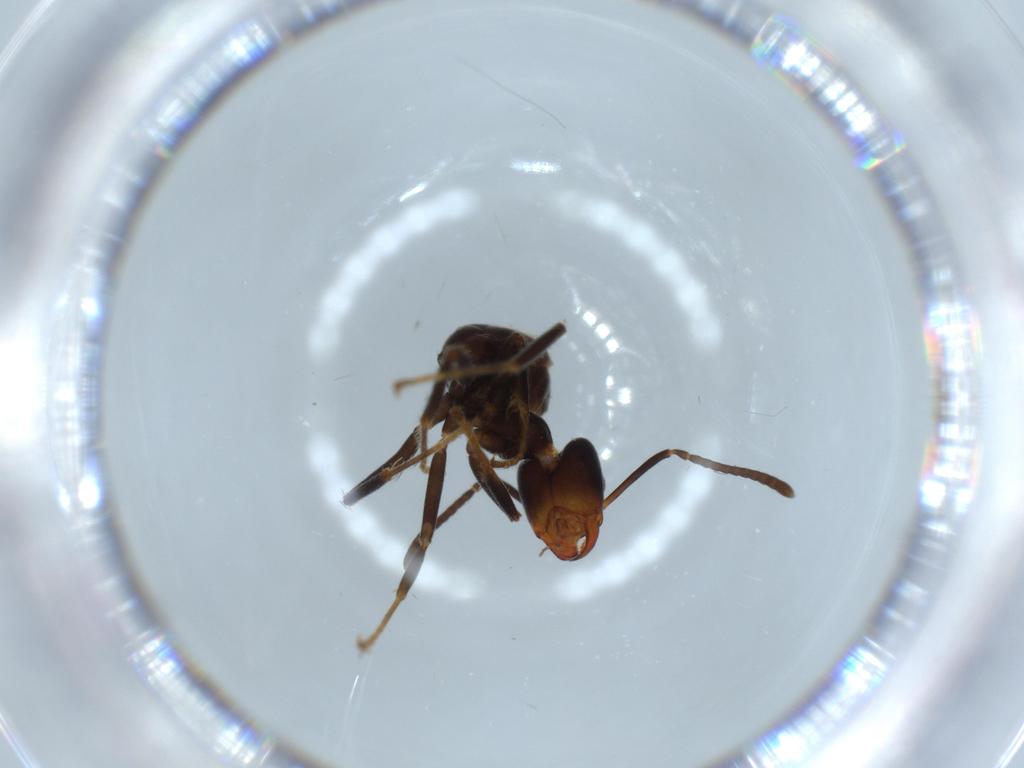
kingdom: Animalia
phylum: Arthropoda
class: Insecta
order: Hymenoptera
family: Formicidae
